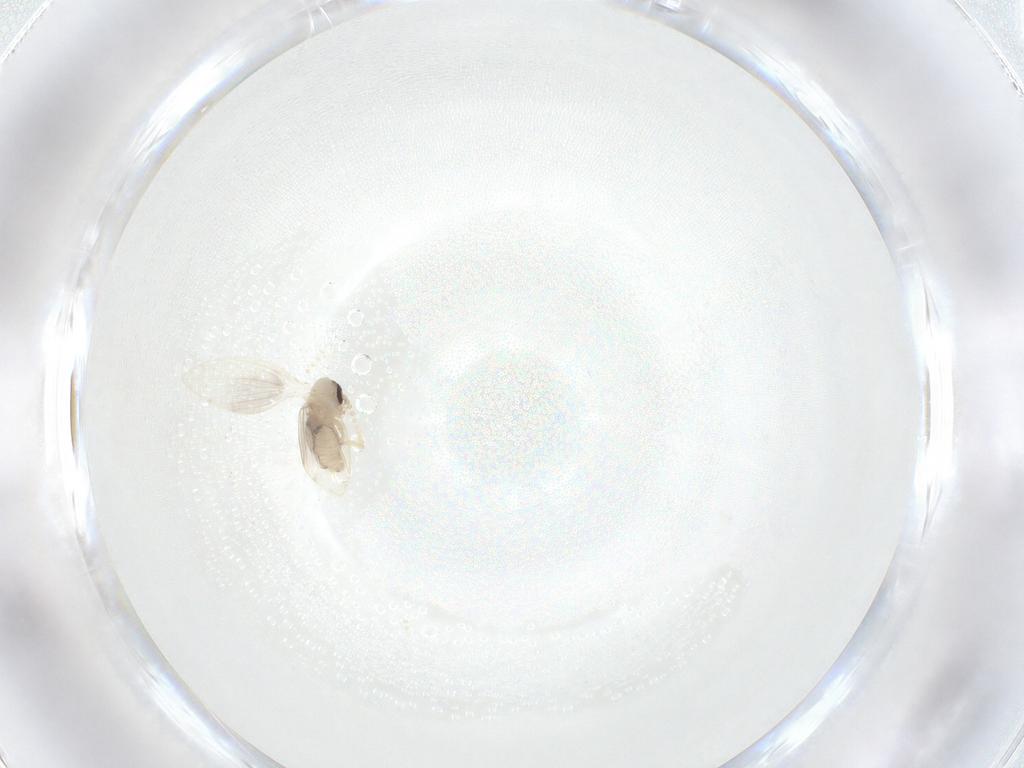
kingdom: Animalia
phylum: Arthropoda
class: Insecta
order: Diptera
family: Psychodidae
